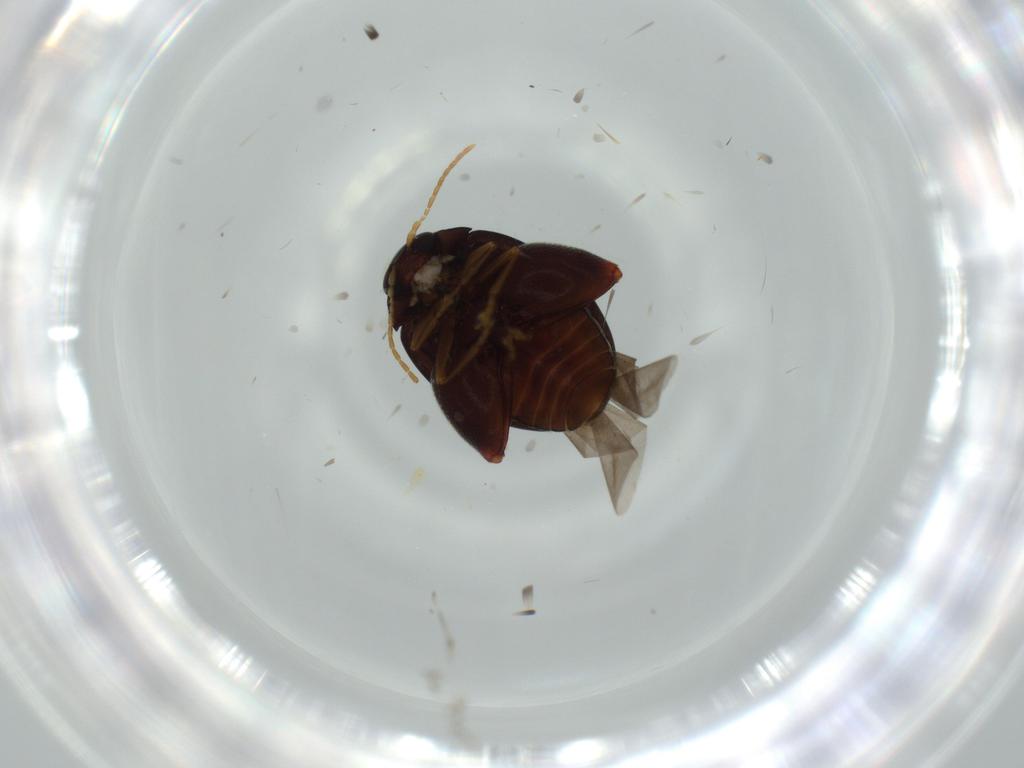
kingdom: Animalia
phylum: Arthropoda
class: Insecta
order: Coleoptera
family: Chrysomelidae
